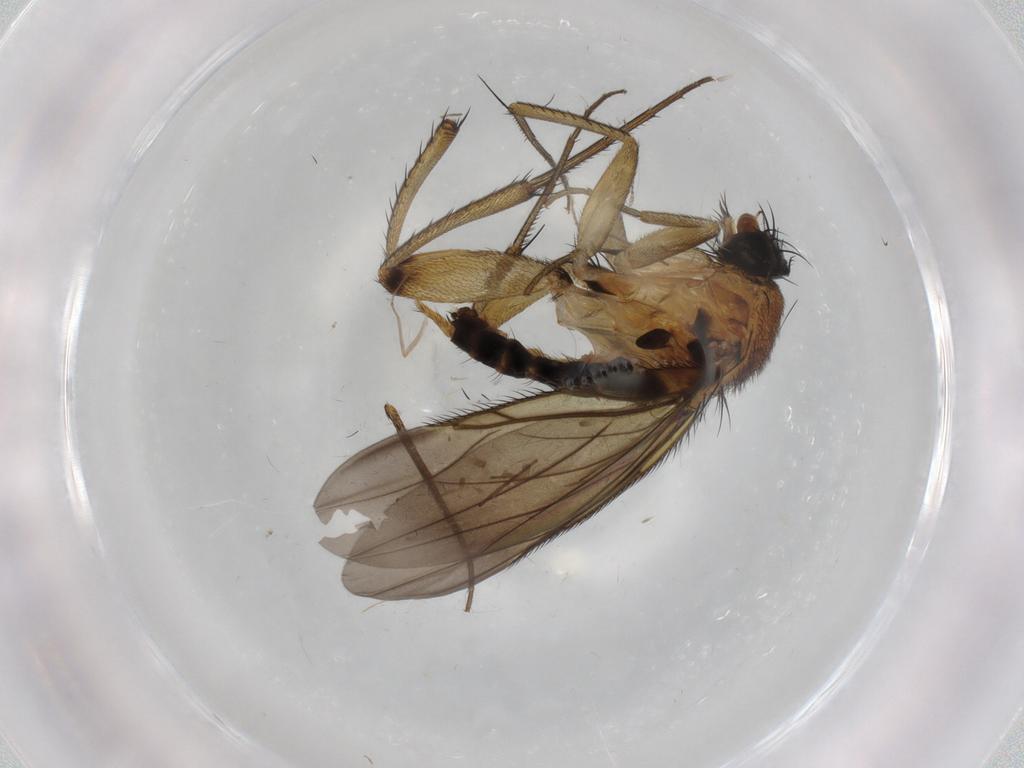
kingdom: Animalia
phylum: Arthropoda
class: Insecta
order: Diptera
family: Phoridae
